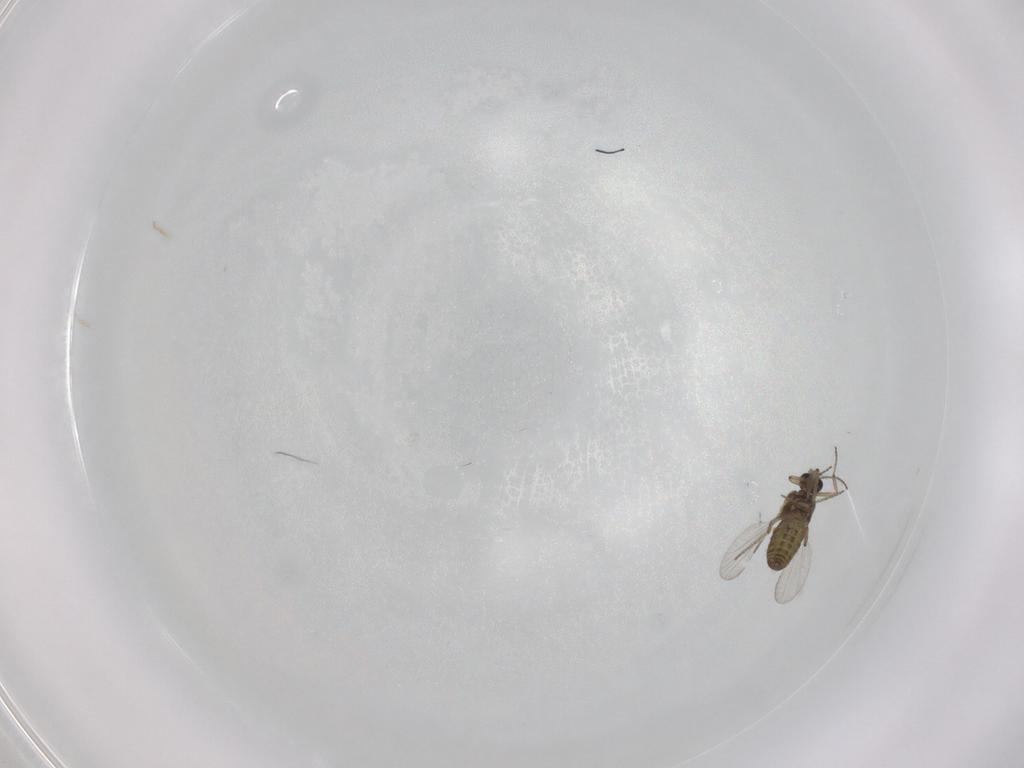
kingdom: Animalia
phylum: Arthropoda
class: Insecta
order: Diptera
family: Ceratopogonidae
